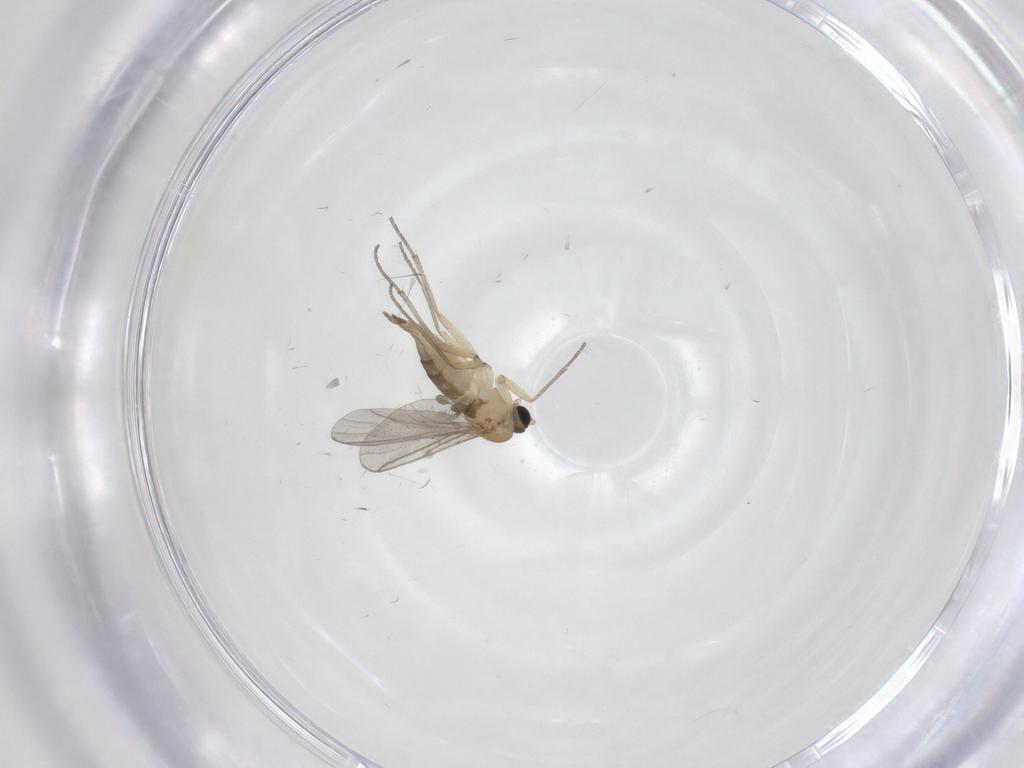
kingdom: Animalia
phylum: Arthropoda
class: Insecta
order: Diptera
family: Sciaridae
